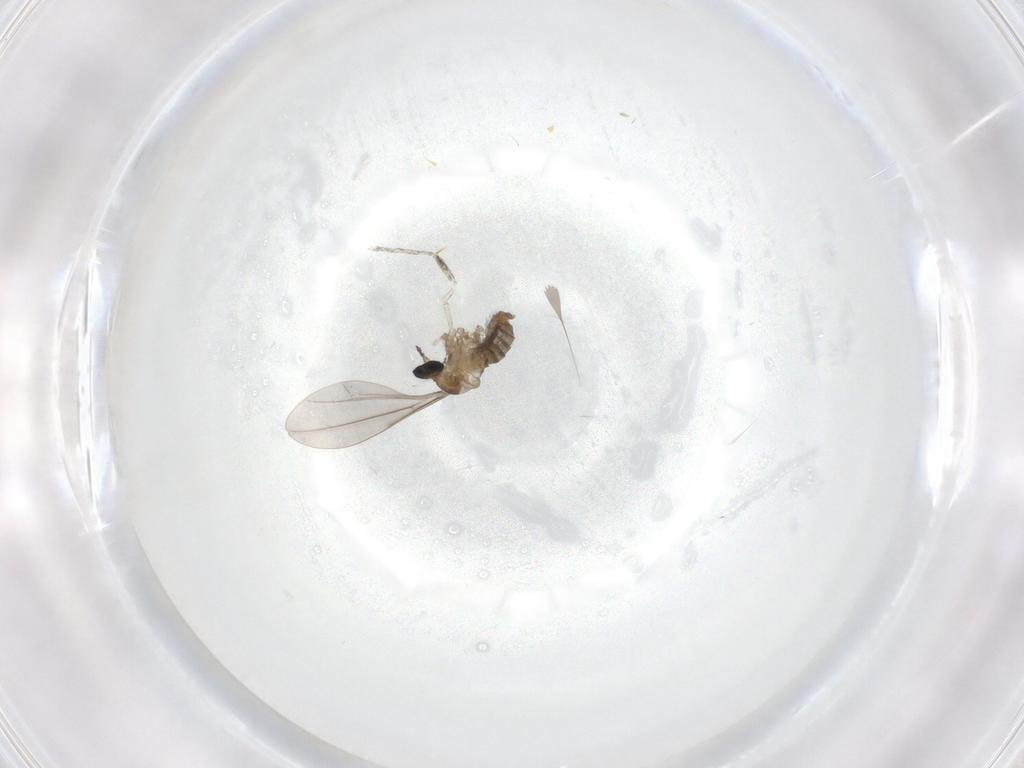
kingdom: Animalia
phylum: Arthropoda
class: Insecta
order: Diptera
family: Cecidomyiidae
